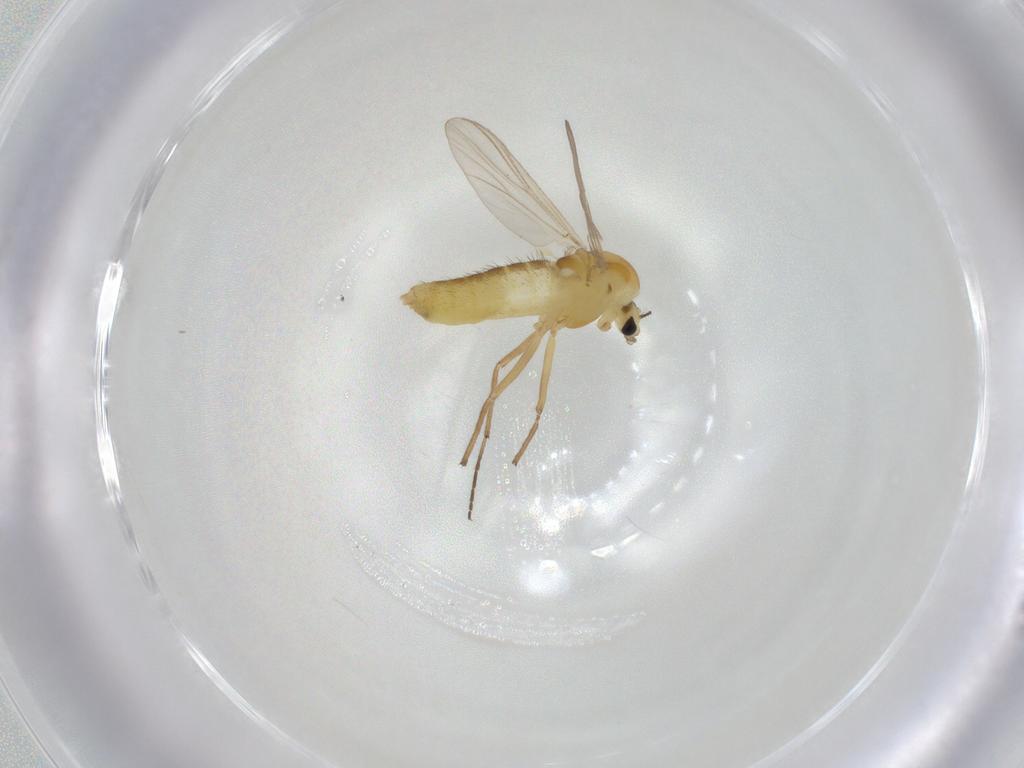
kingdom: Animalia
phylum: Arthropoda
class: Insecta
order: Diptera
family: Chironomidae
